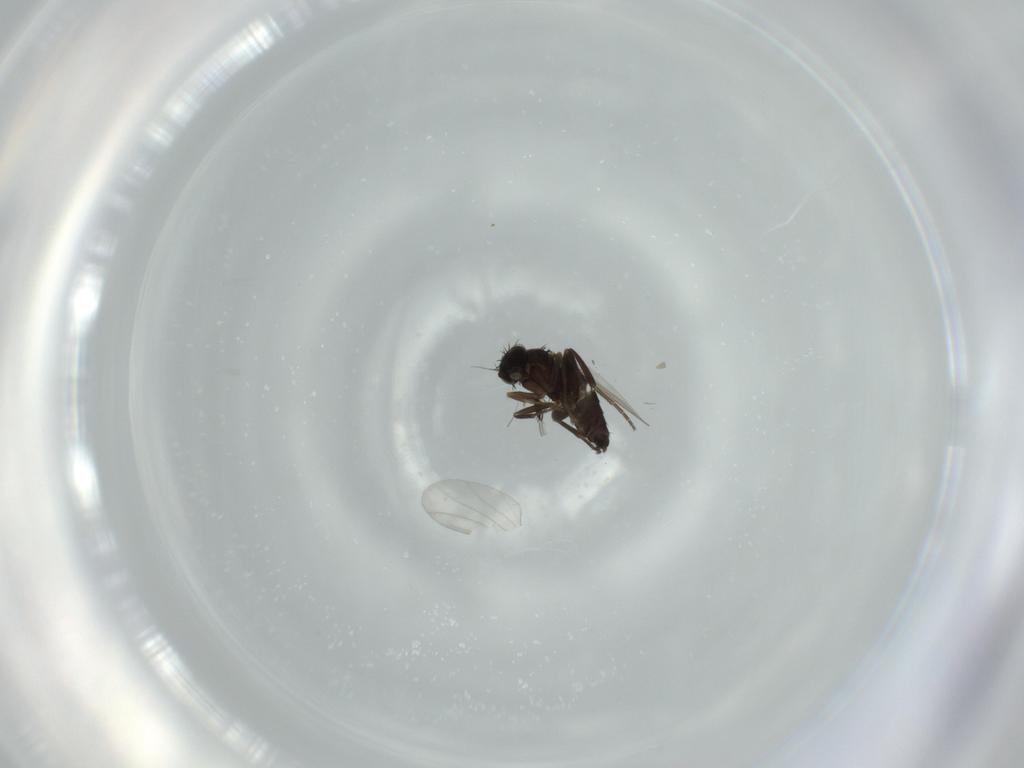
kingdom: Animalia
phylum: Arthropoda
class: Insecta
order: Diptera
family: Phoridae
